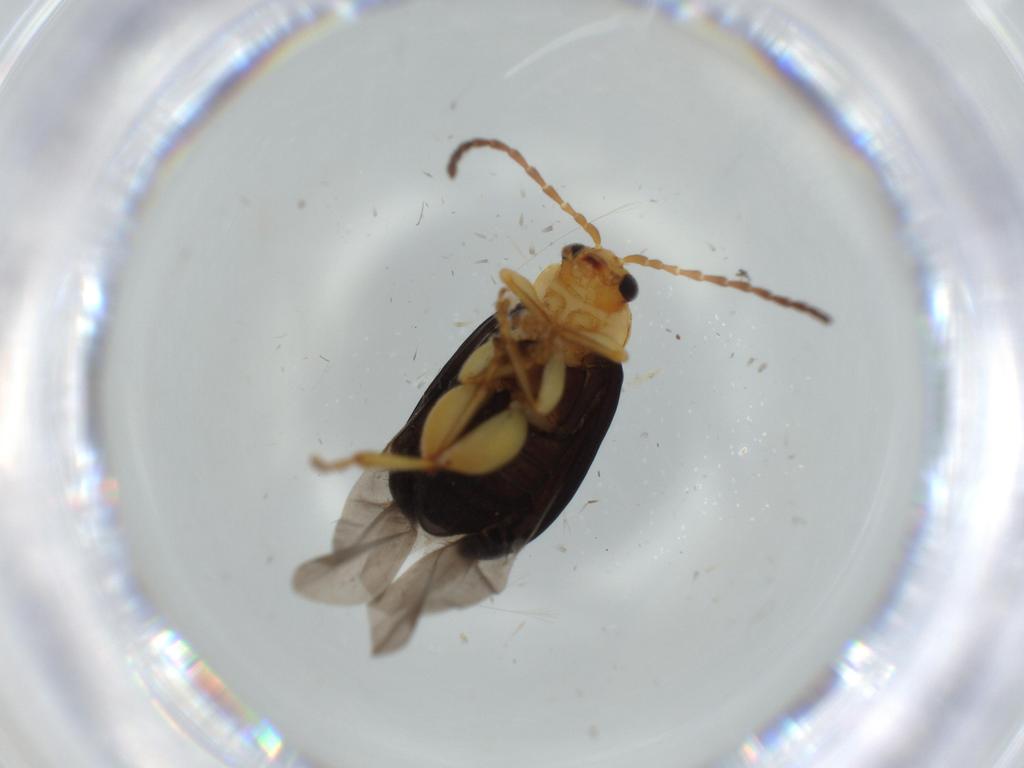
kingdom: Animalia
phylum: Arthropoda
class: Insecta
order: Coleoptera
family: Chrysomelidae
